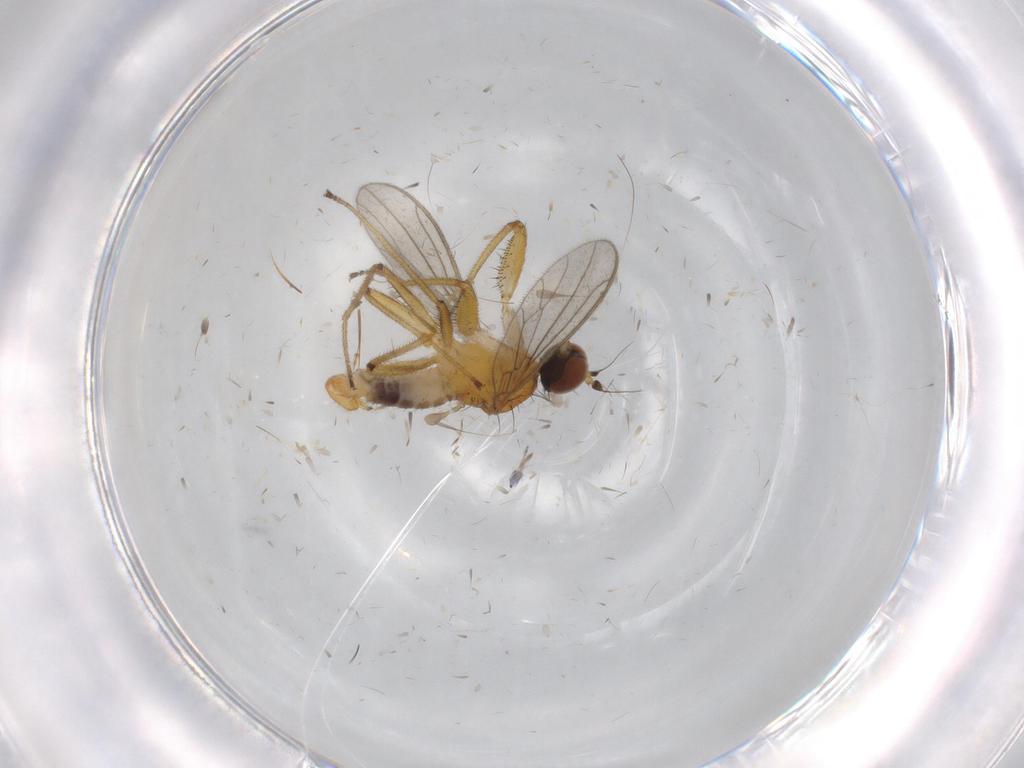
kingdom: Animalia
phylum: Arthropoda
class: Insecta
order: Diptera
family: Empididae
